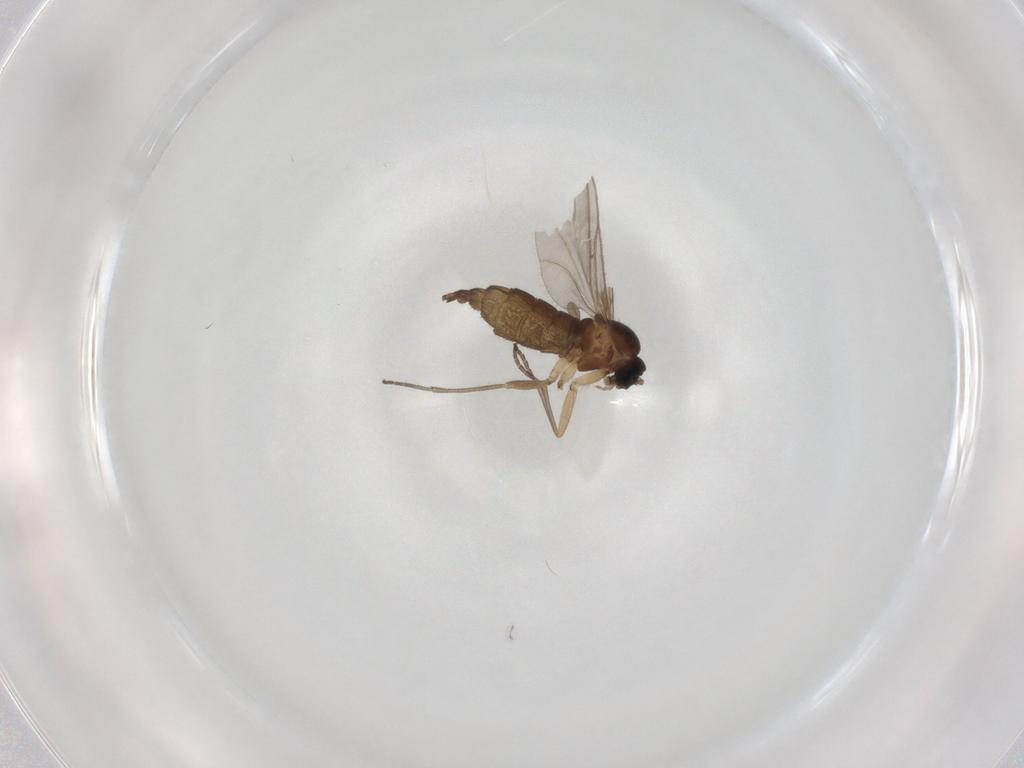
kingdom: Animalia
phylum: Arthropoda
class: Insecta
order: Diptera
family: Sciaridae
